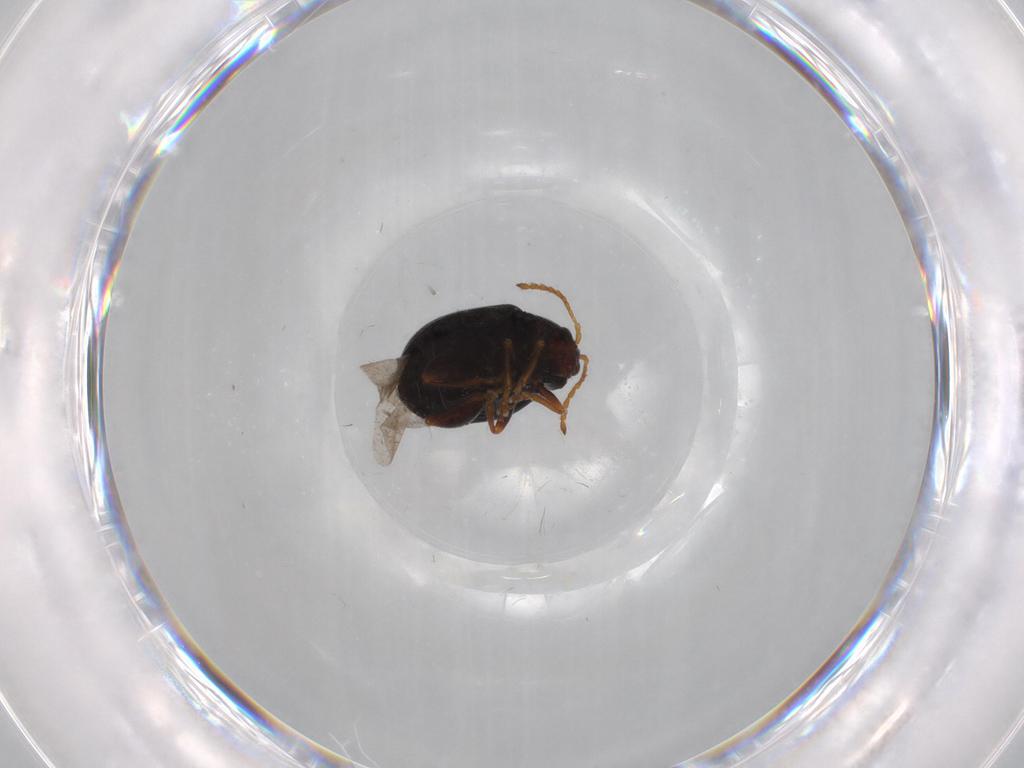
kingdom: Animalia
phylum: Arthropoda
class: Insecta
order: Coleoptera
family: Chrysomelidae
